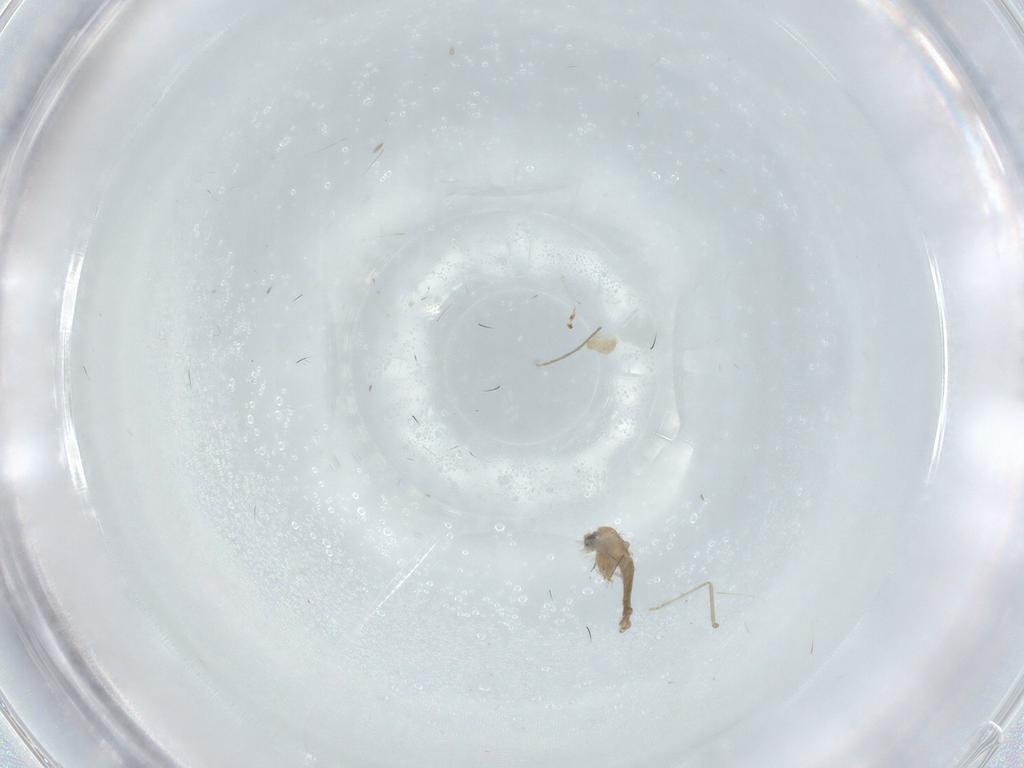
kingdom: Animalia
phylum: Arthropoda
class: Insecta
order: Diptera
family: Chironomidae
